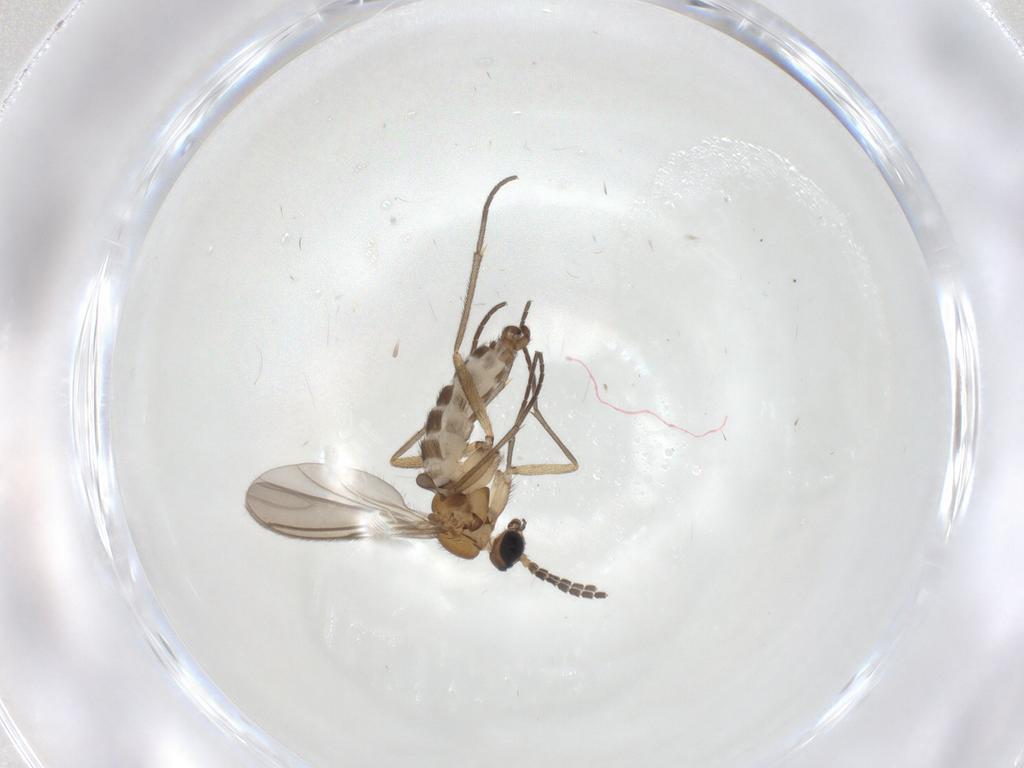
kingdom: Animalia
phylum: Arthropoda
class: Insecta
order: Diptera
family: Sciaridae
